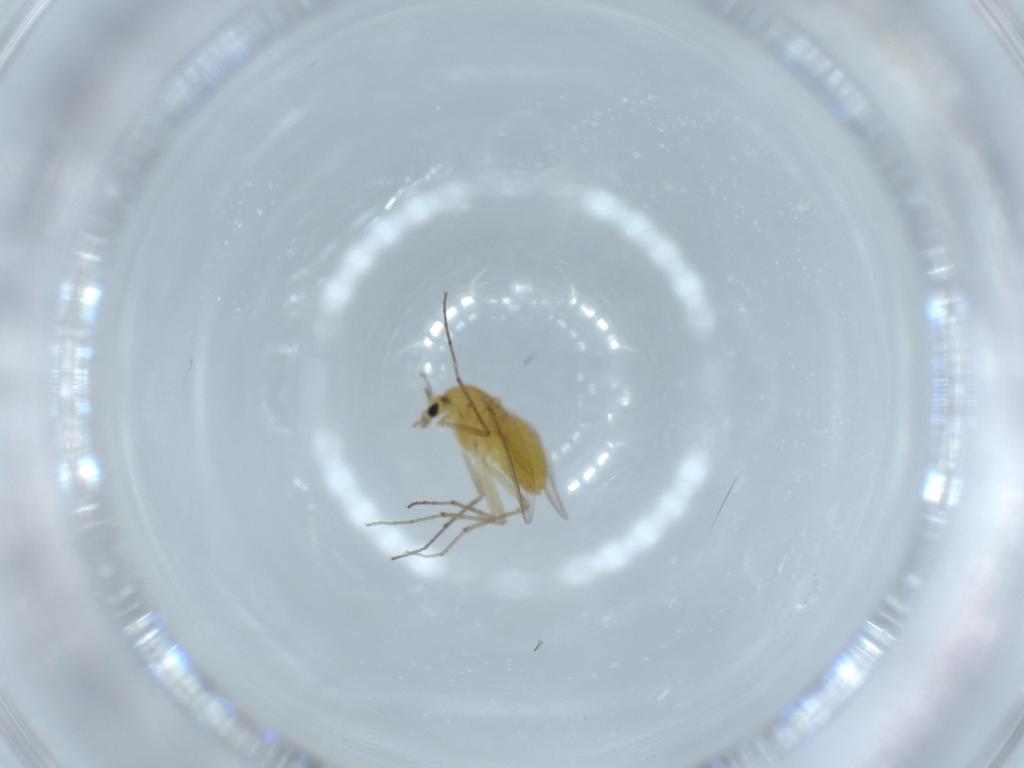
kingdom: Animalia
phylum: Arthropoda
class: Insecta
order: Diptera
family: Chironomidae
